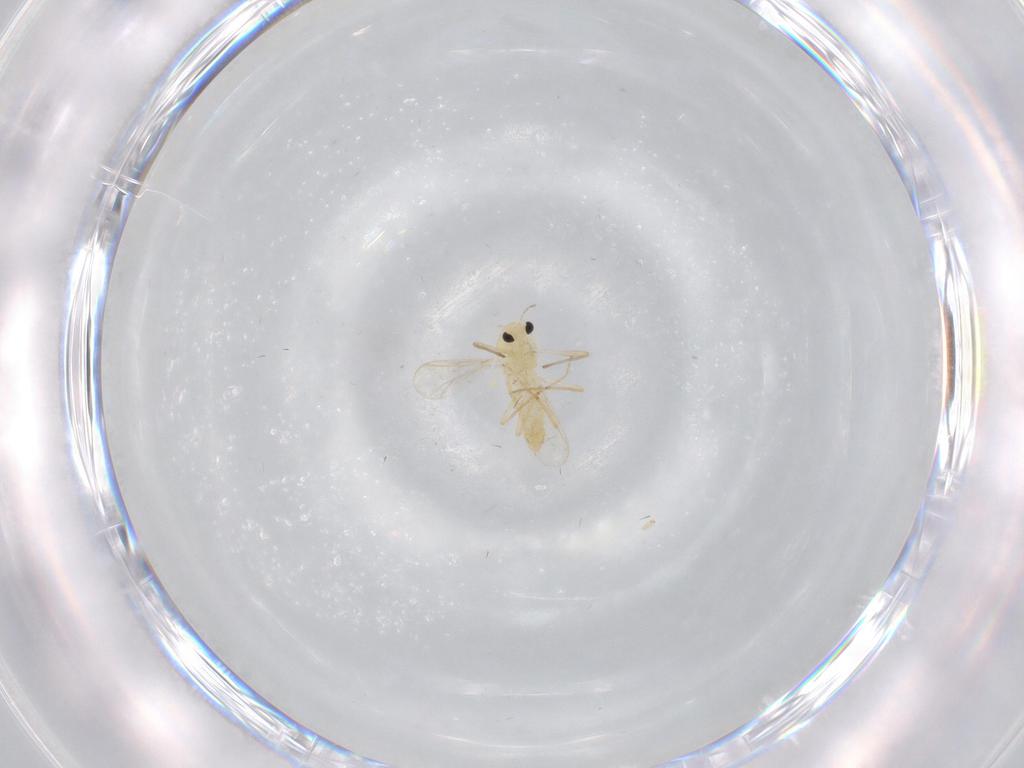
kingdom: Animalia
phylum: Arthropoda
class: Insecta
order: Diptera
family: Chironomidae
